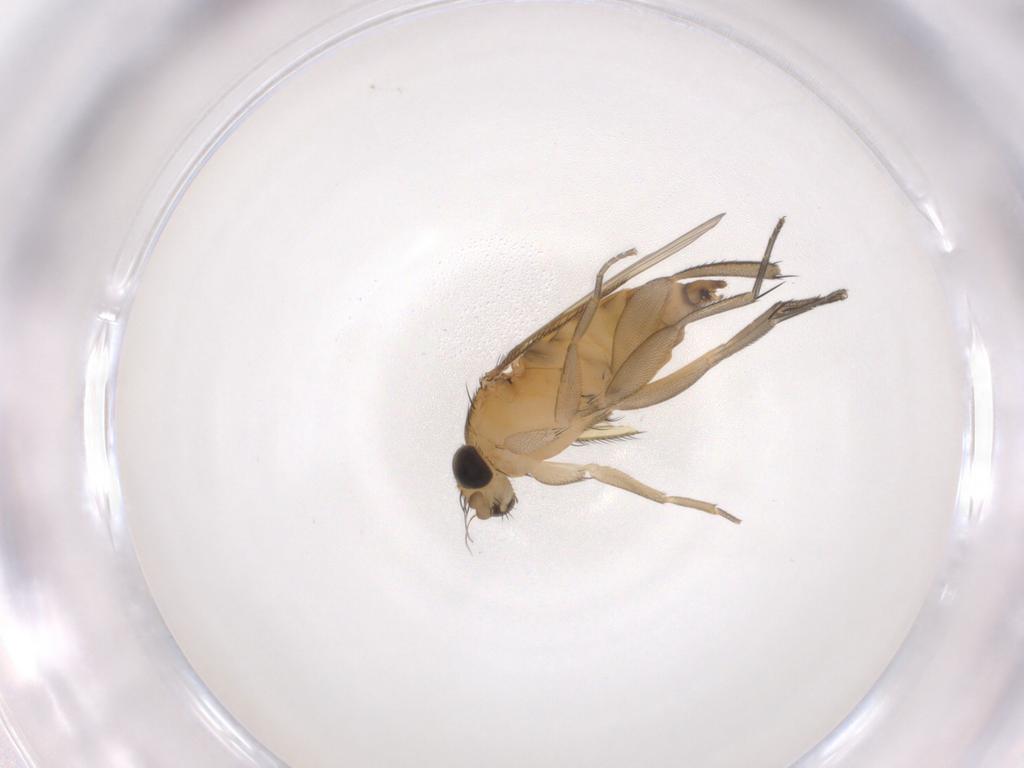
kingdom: Animalia
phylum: Arthropoda
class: Insecta
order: Diptera
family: Phoridae
